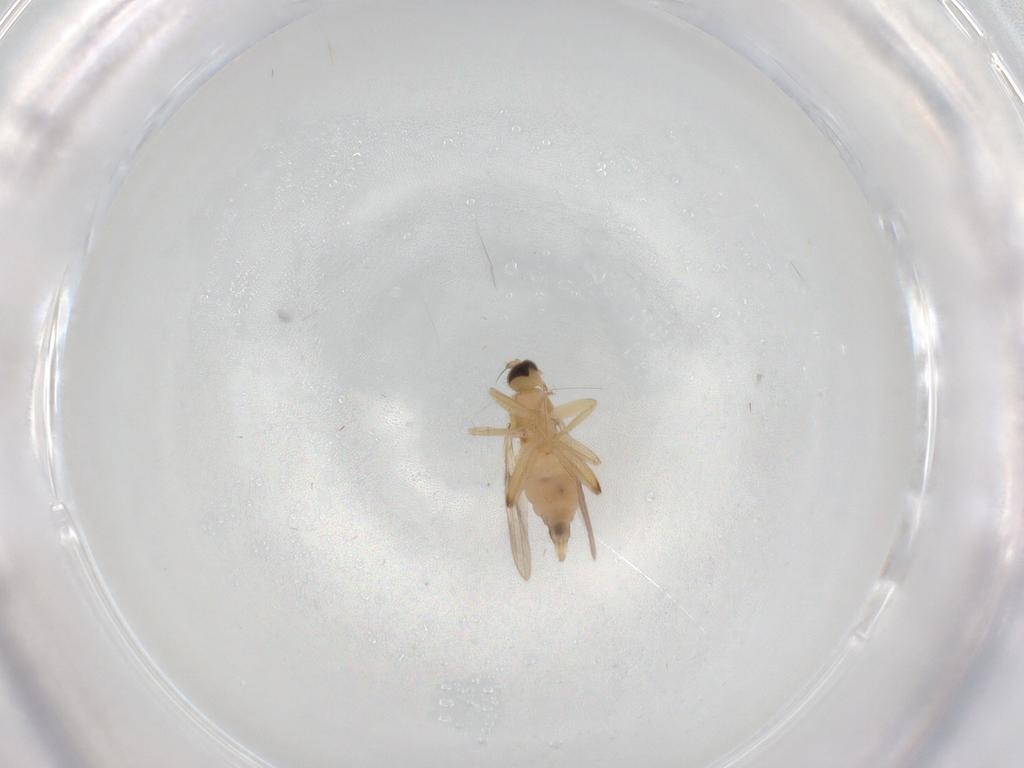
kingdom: Animalia
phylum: Arthropoda
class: Insecta
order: Diptera
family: Hybotidae
